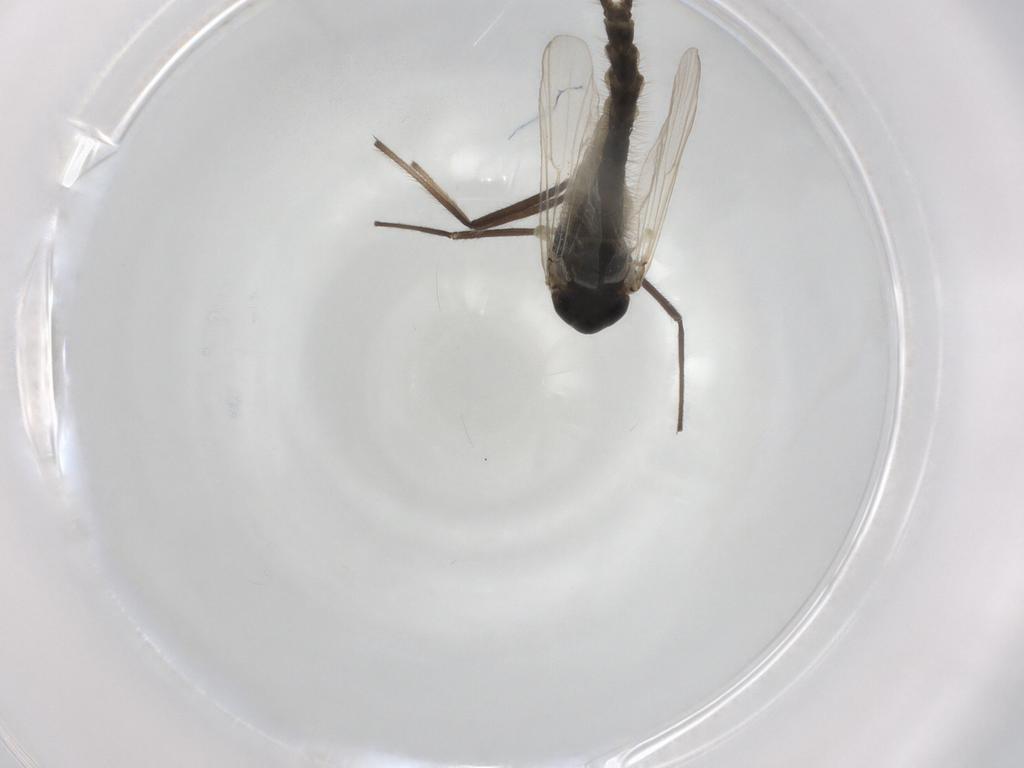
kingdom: Animalia
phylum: Arthropoda
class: Insecta
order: Diptera
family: Chironomidae
